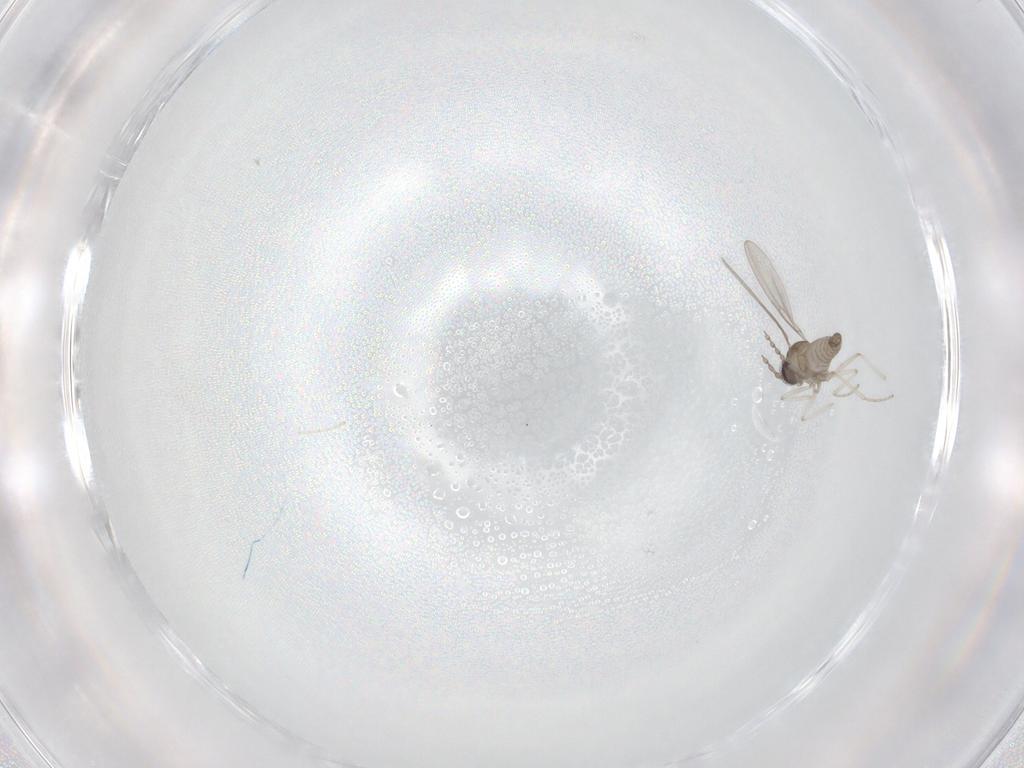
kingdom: Animalia
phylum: Arthropoda
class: Insecta
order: Diptera
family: Cecidomyiidae
